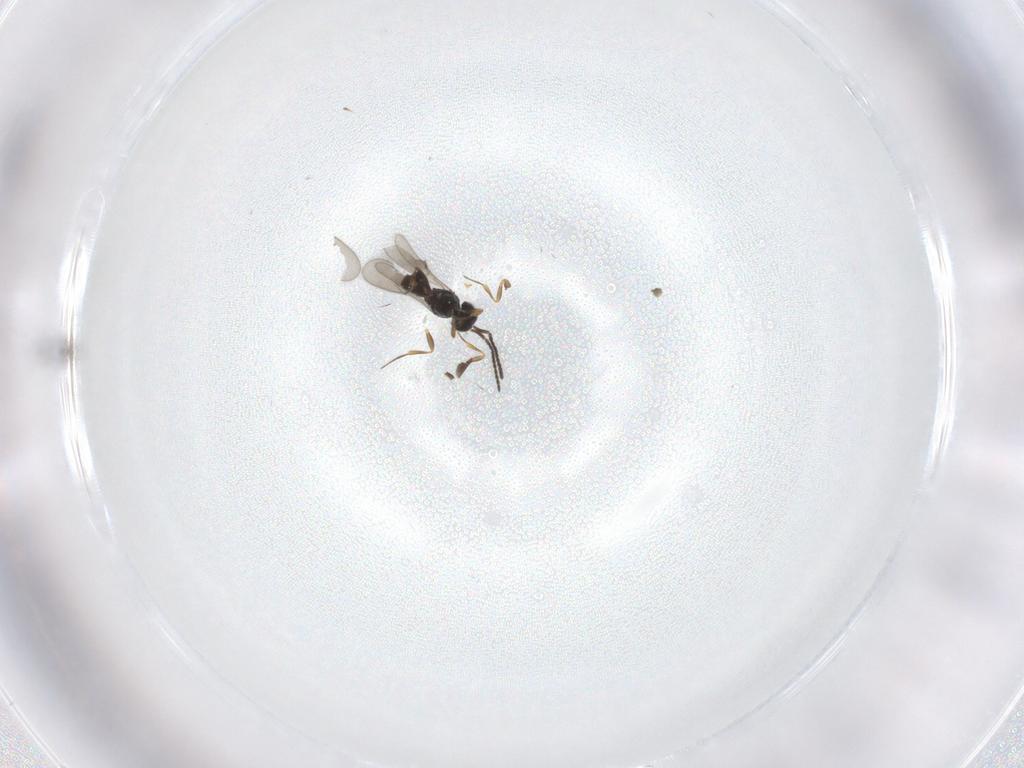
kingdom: Animalia
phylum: Arthropoda
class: Insecta
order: Hymenoptera
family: Scelionidae
